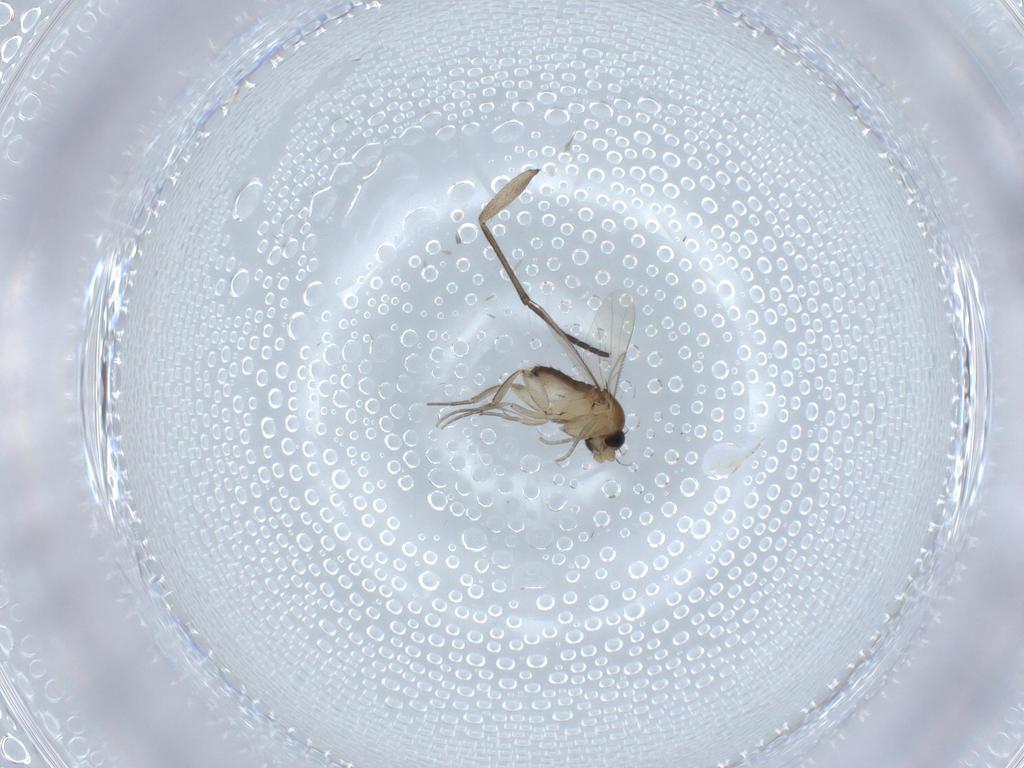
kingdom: Animalia
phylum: Arthropoda
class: Insecta
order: Diptera
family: Phoridae
